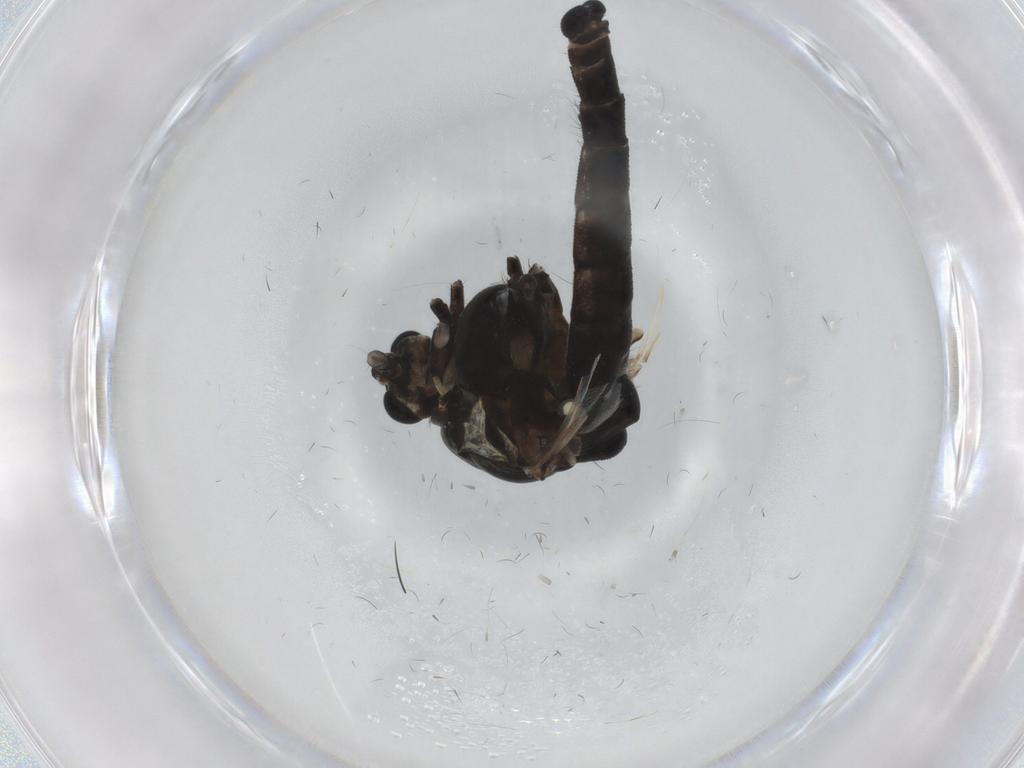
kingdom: Animalia
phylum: Arthropoda
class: Insecta
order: Diptera
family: Chironomidae
